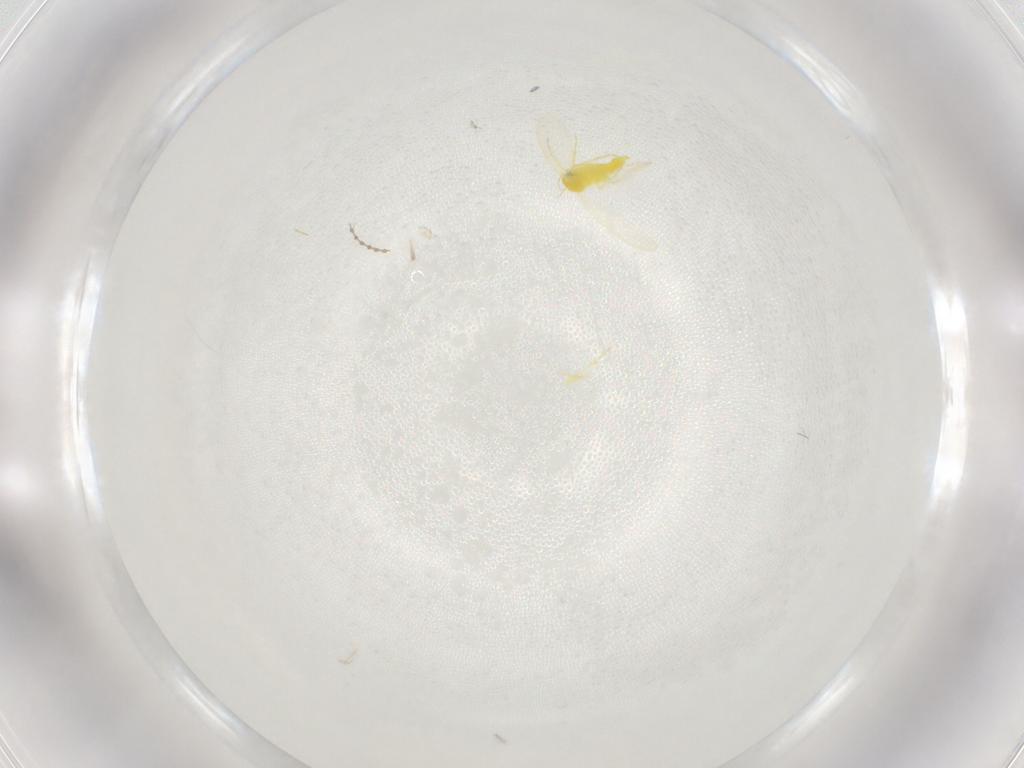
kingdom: Animalia
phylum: Arthropoda
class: Insecta
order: Hemiptera
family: Aleyrodidae
